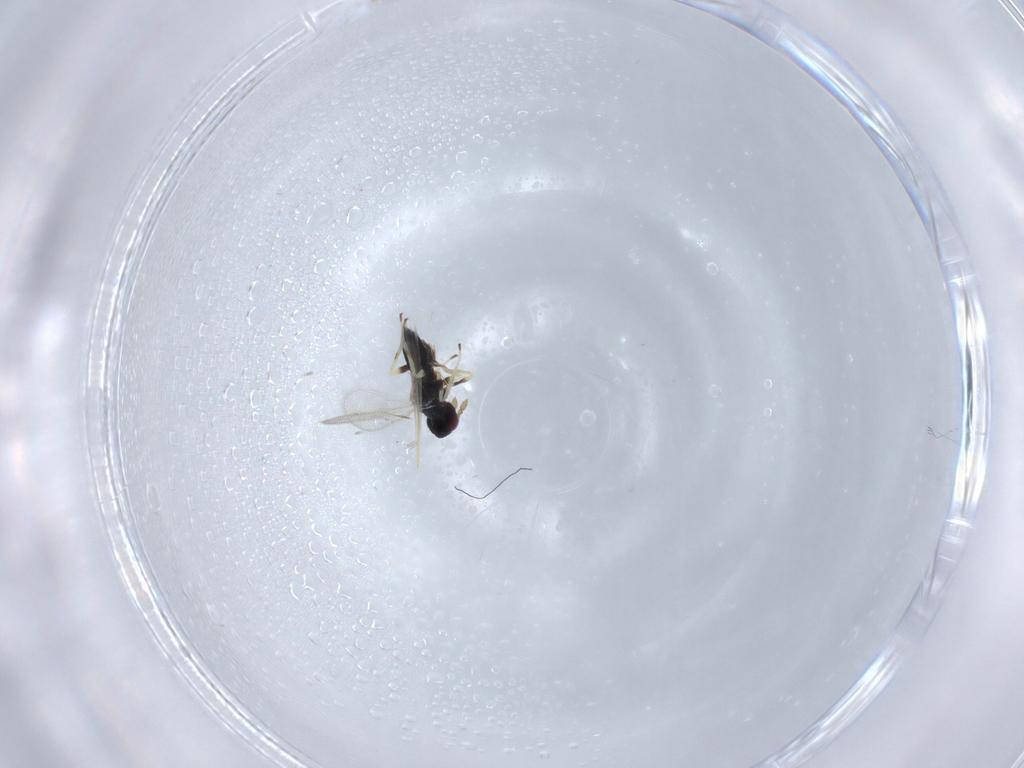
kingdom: Animalia
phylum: Arthropoda
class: Insecta
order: Hymenoptera
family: Eulophidae
